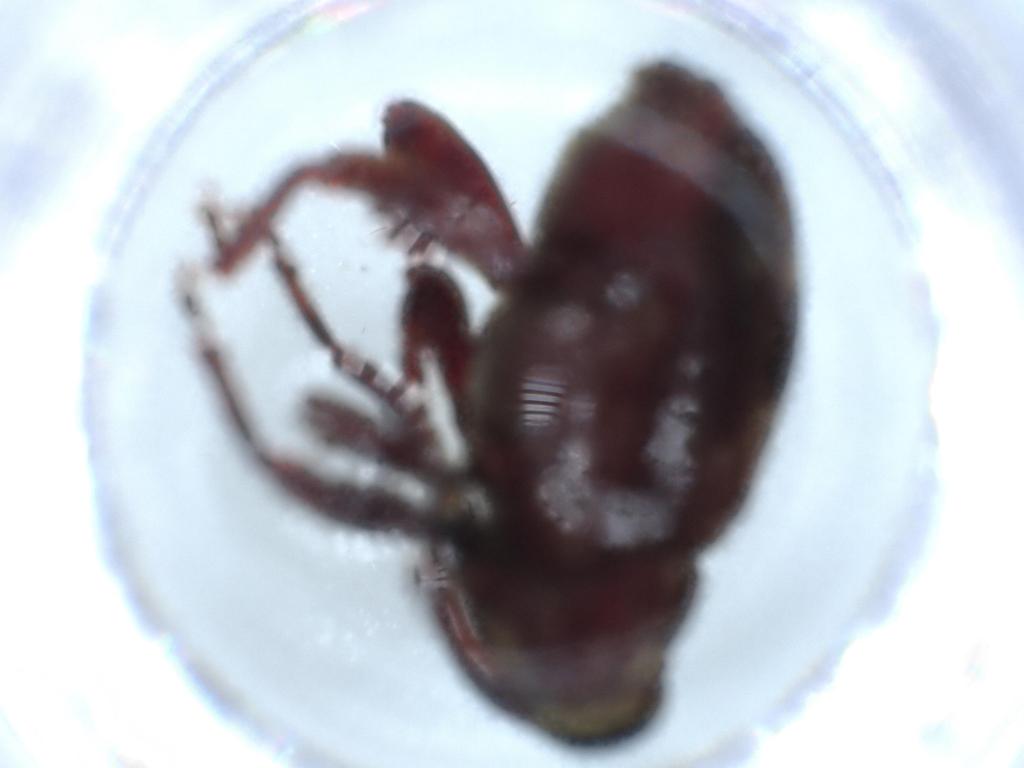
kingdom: Animalia
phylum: Arthropoda
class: Insecta
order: Coleoptera
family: Curculionidae
